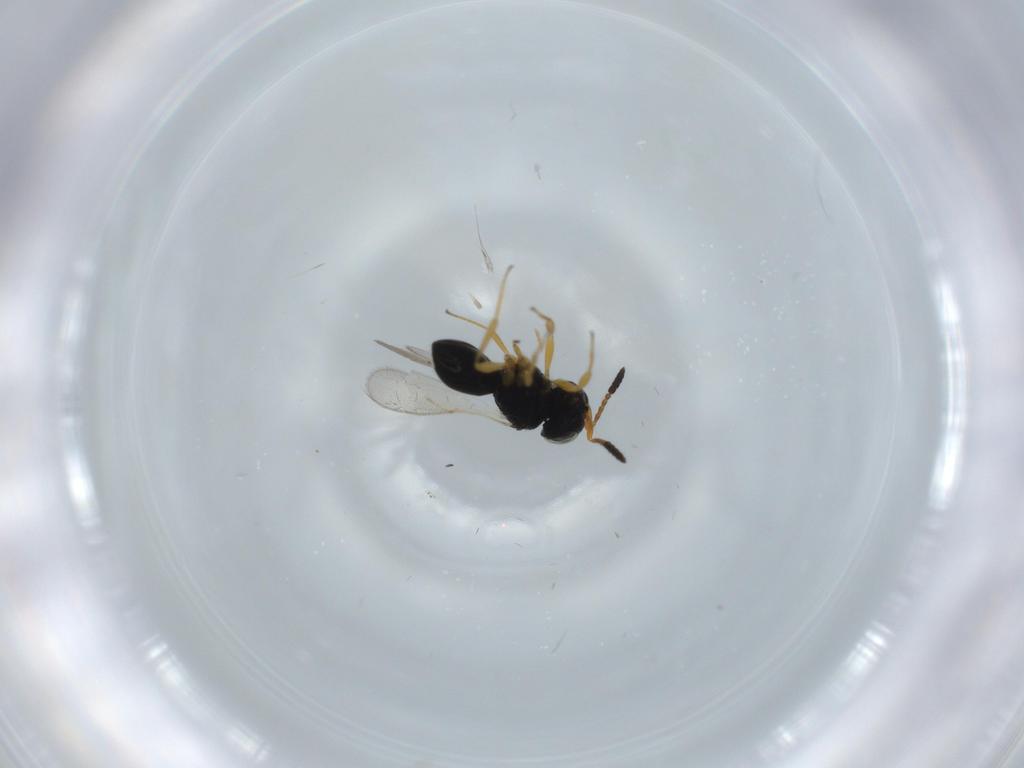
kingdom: Animalia
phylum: Arthropoda
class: Insecta
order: Hymenoptera
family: Scelionidae
